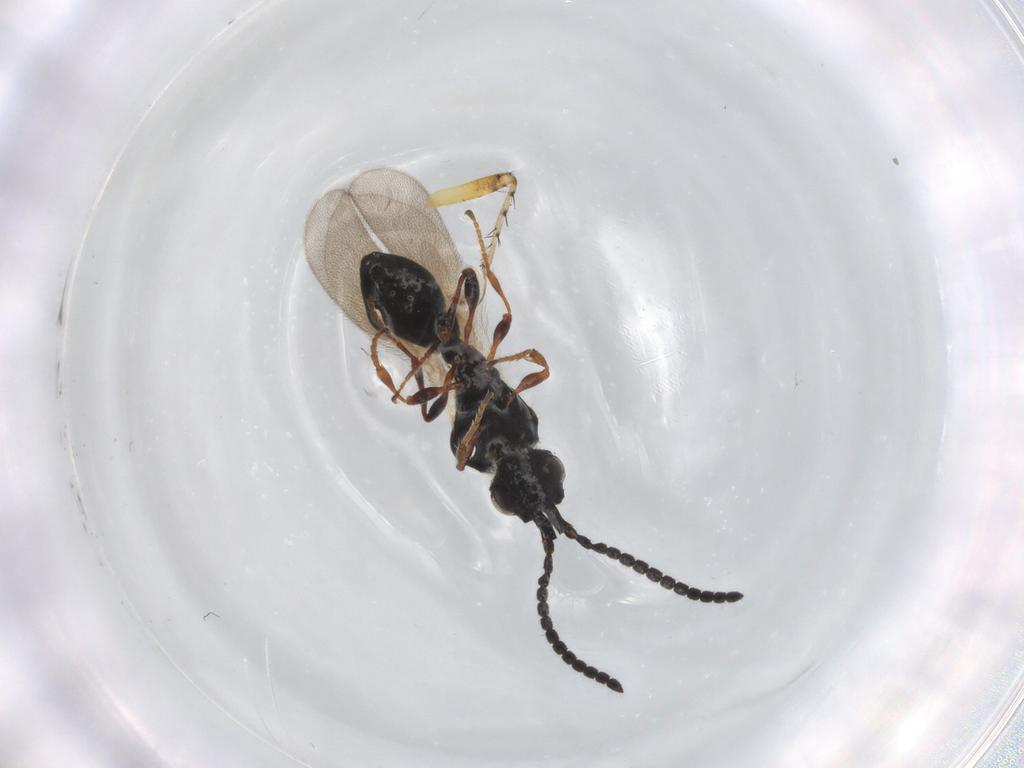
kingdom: Animalia
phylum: Arthropoda
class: Insecta
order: Hymenoptera
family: Diapriidae
